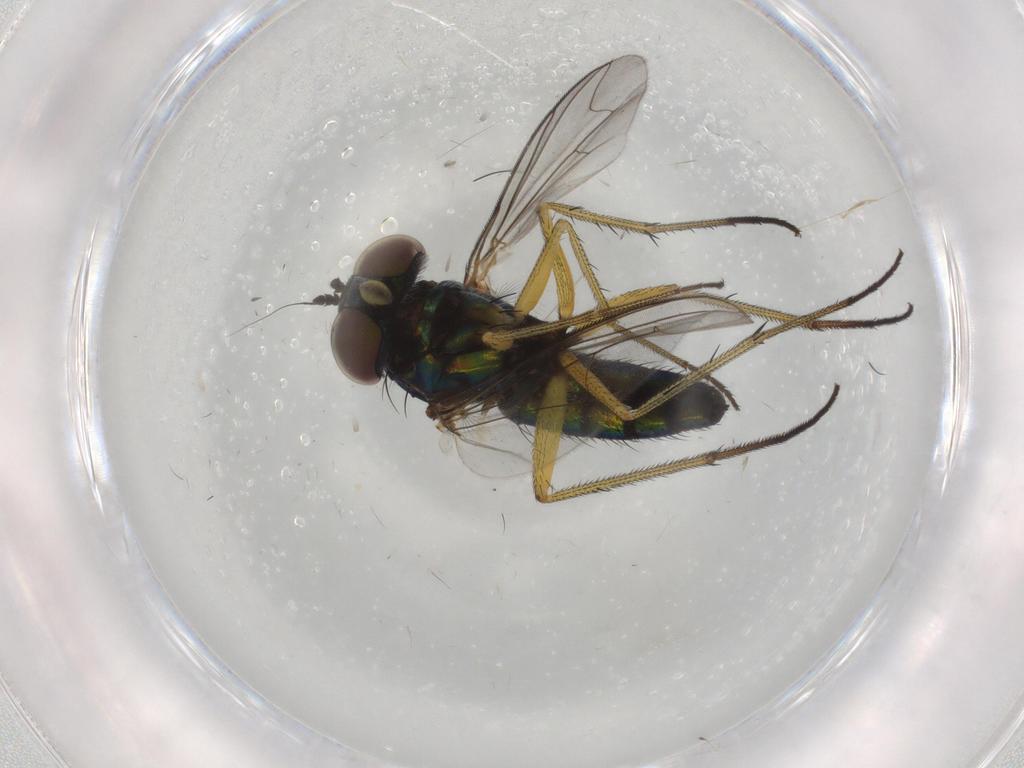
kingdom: Animalia
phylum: Arthropoda
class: Insecta
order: Diptera
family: Dolichopodidae
